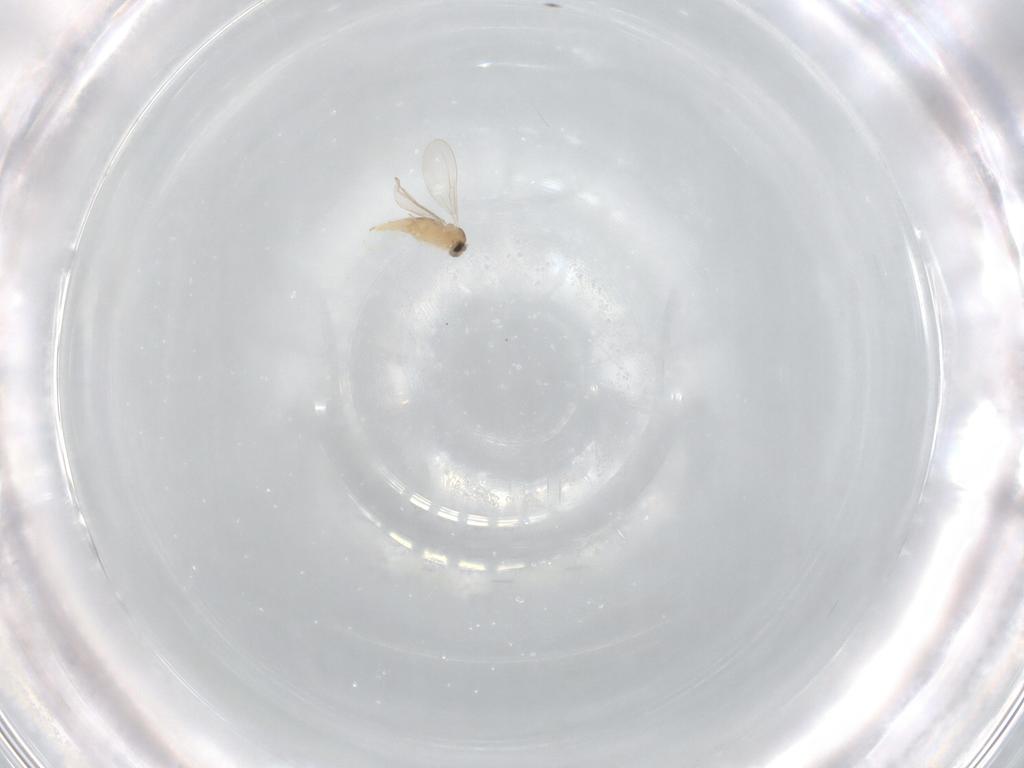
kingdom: Animalia
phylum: Arthropoda
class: Insecta
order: Diptera
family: Cecidomyiidae
